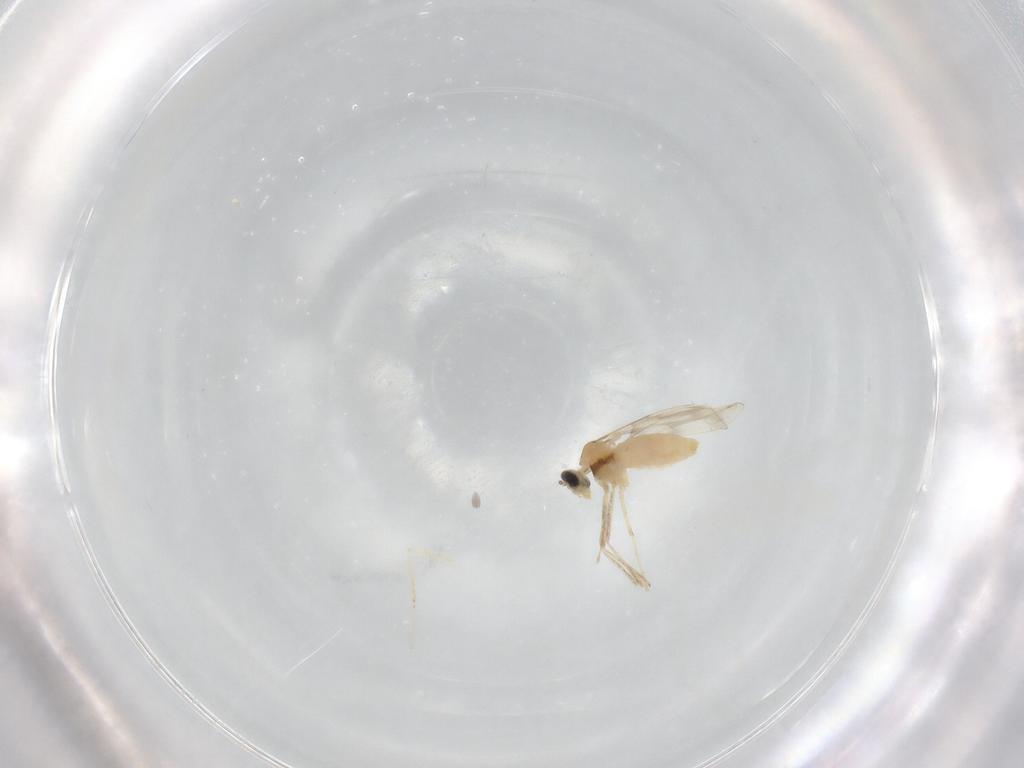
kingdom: Animalia
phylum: Arthropoda
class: Insecta
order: Diptera
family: Cecidomyiidae
